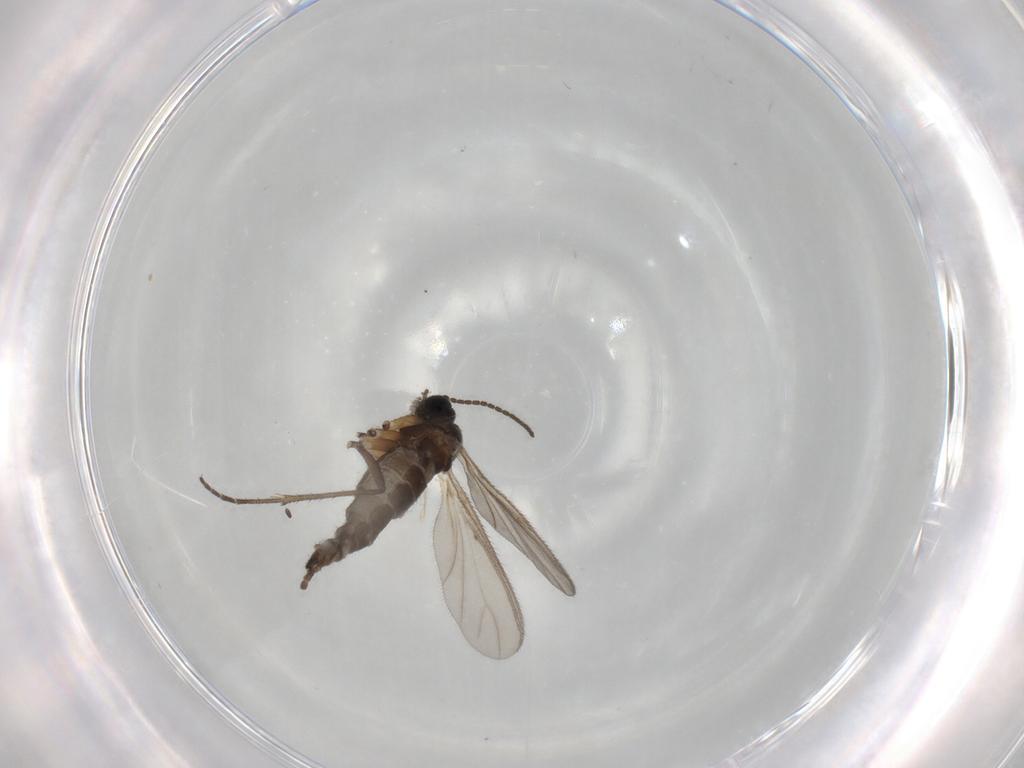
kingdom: Animalia
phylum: Arthropoda
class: Insecta
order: Diptera
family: Sciaridae
